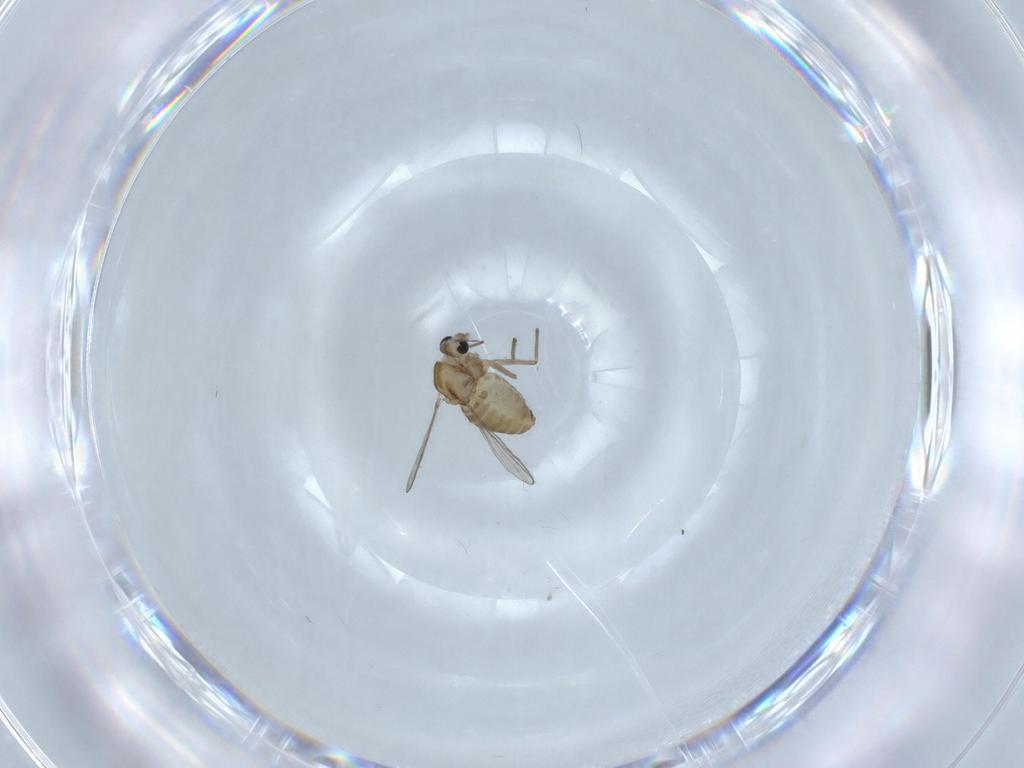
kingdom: Animalia
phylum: Arthropoda
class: Insecta
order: Diptera
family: Chironomidae
